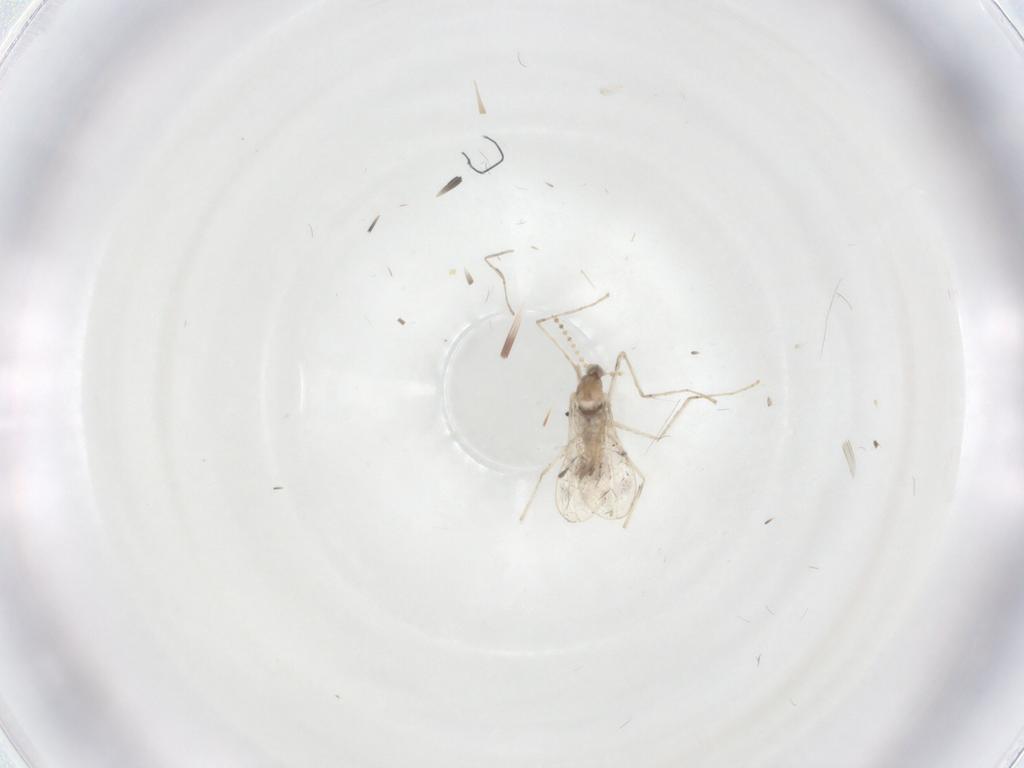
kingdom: Animalia
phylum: Arthropoda
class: Insecta
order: Diptera
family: Cecidomyiidae
